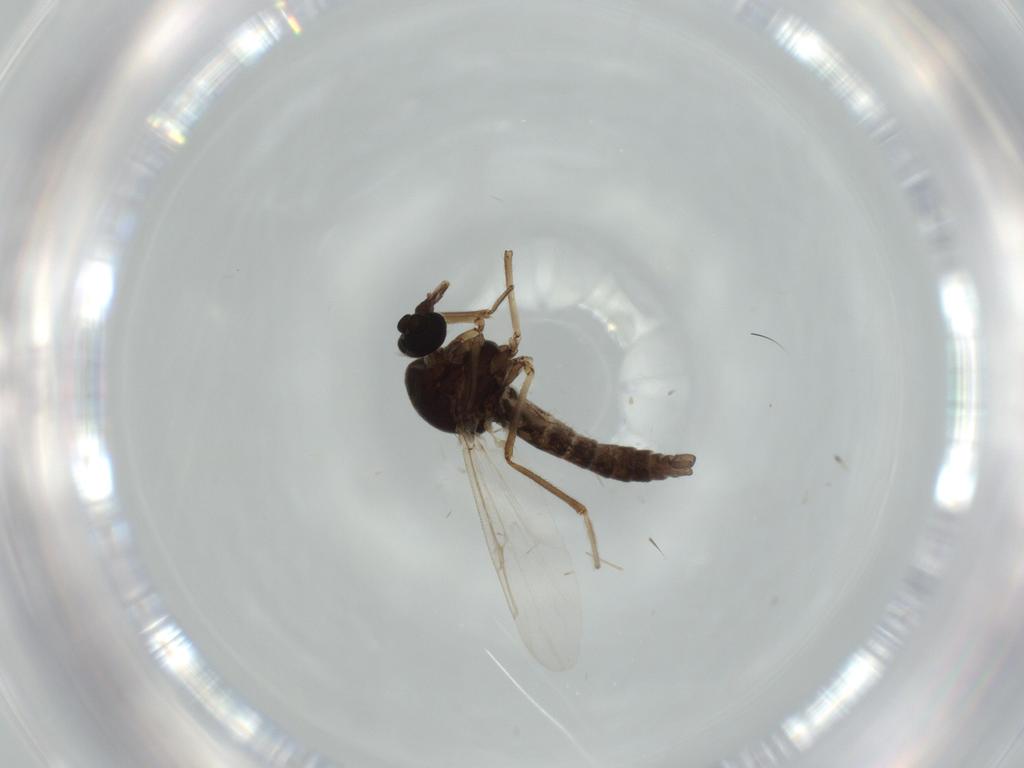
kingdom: Animalia
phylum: Arthropoda
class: Insecta
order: Diptera
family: Ceratopogonidae
